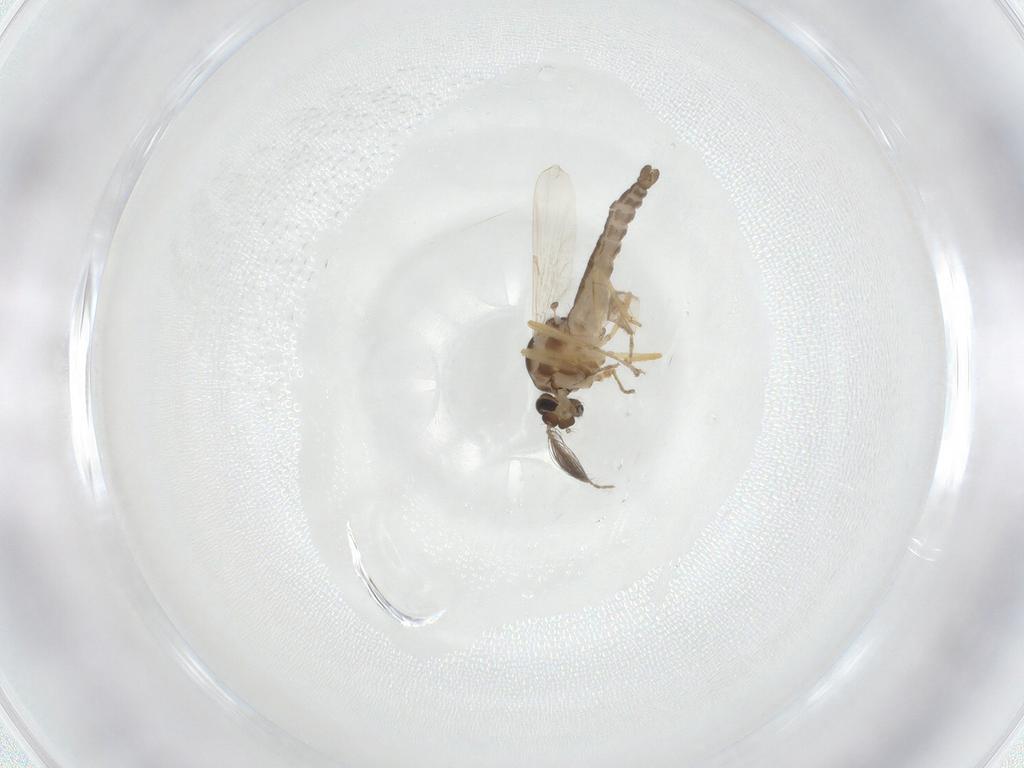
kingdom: Animalia
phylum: Arthropoda
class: Insecta
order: Diptera
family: Ceratopogonidae
